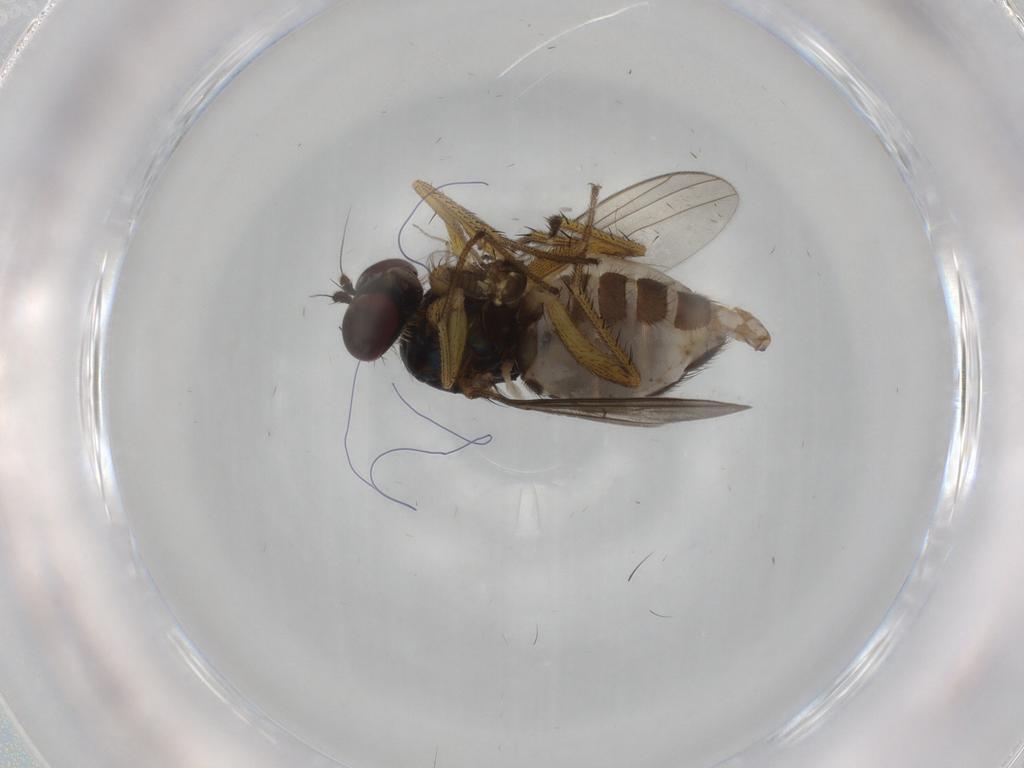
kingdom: Animalia
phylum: Arthropoda
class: Insecta
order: Diptera
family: Dolichopodidae
